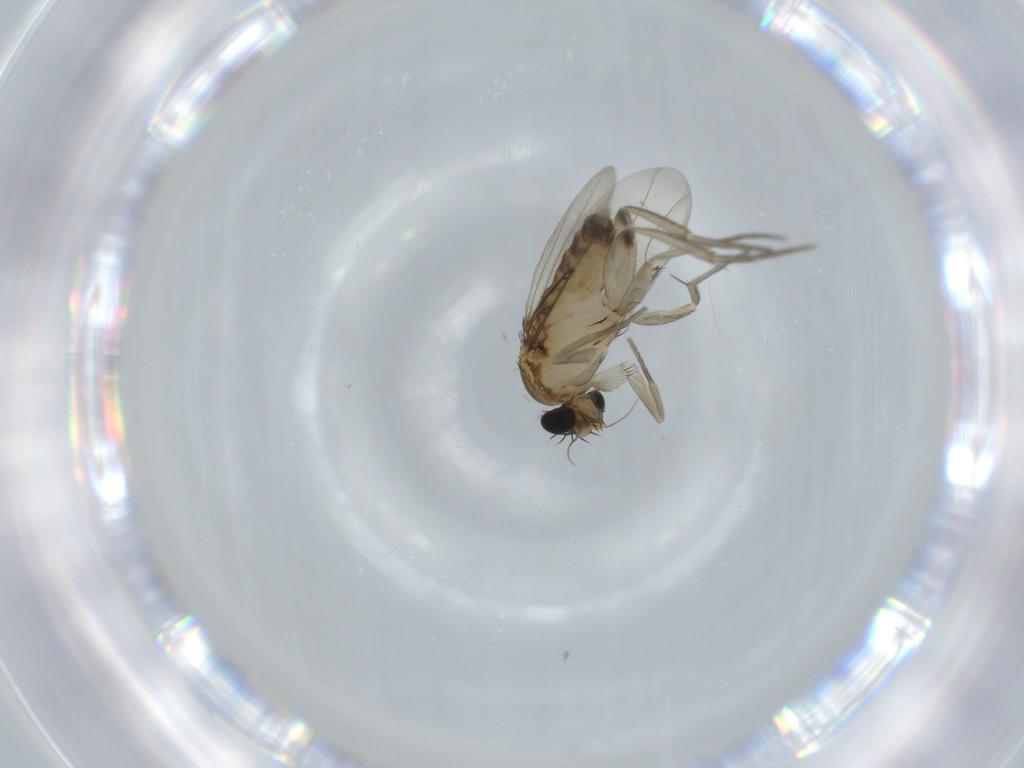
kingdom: Animalia
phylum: Arthropoda
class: Insecta
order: Diptera
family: Phoridae
